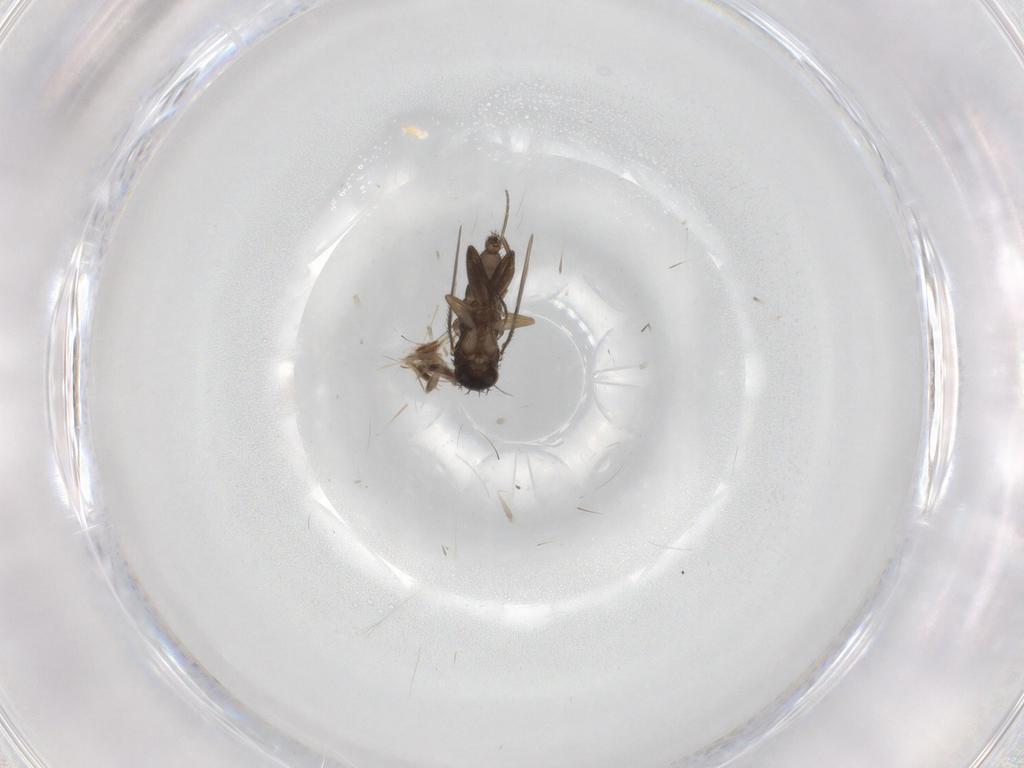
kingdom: Animalia
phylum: Arthropoda
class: Insecta
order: Diptera
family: Phoridae
